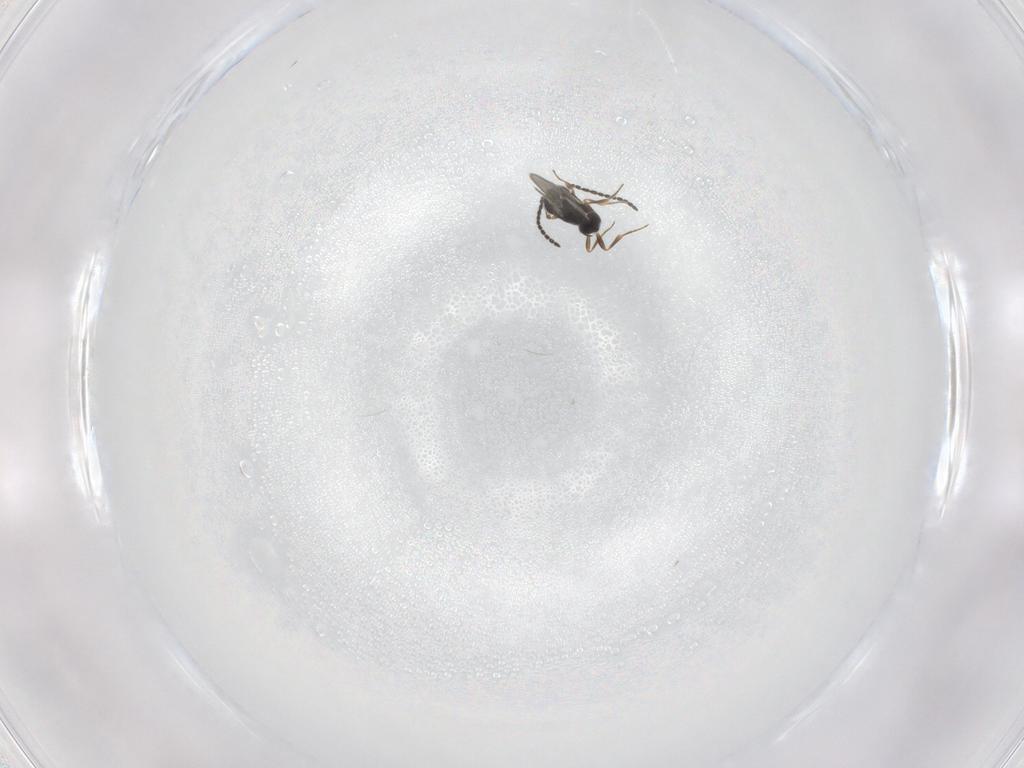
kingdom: Animalia
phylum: Arthropoda
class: Insecta
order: Hymenoptera
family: Scelionidae
